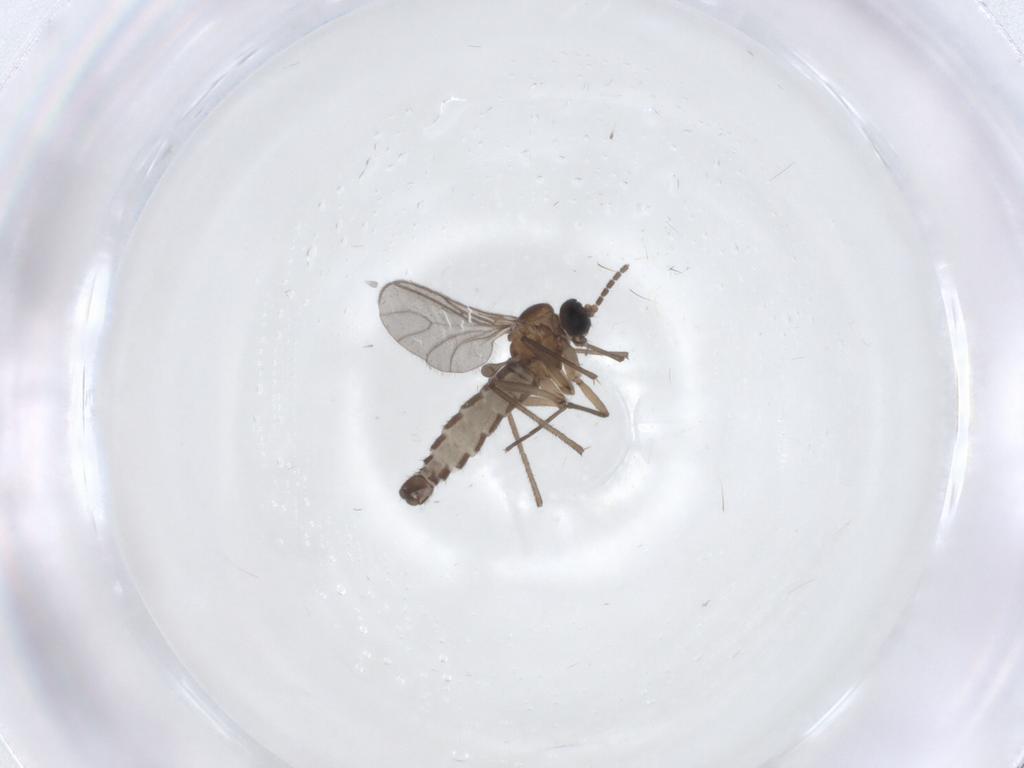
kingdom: Animalia
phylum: Arthropoda
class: Insecta
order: Diptera
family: Sciaridae
